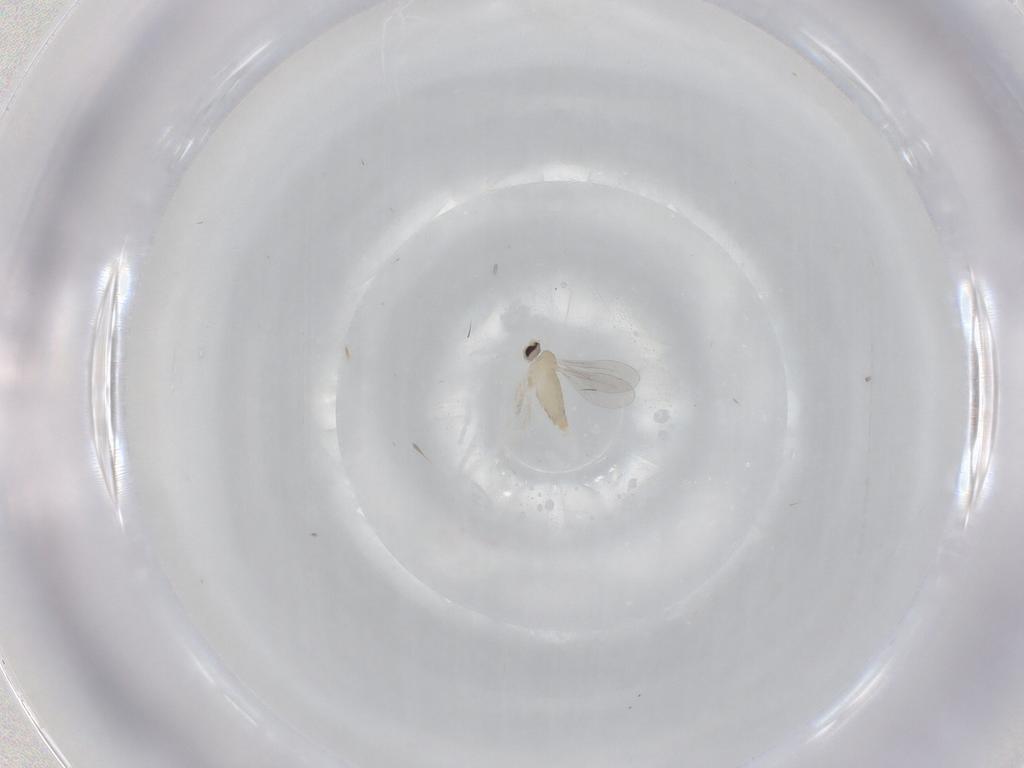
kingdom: Animalia
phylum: Arthropoda
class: Insecta
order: Diptera
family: Cecidomyiidae
